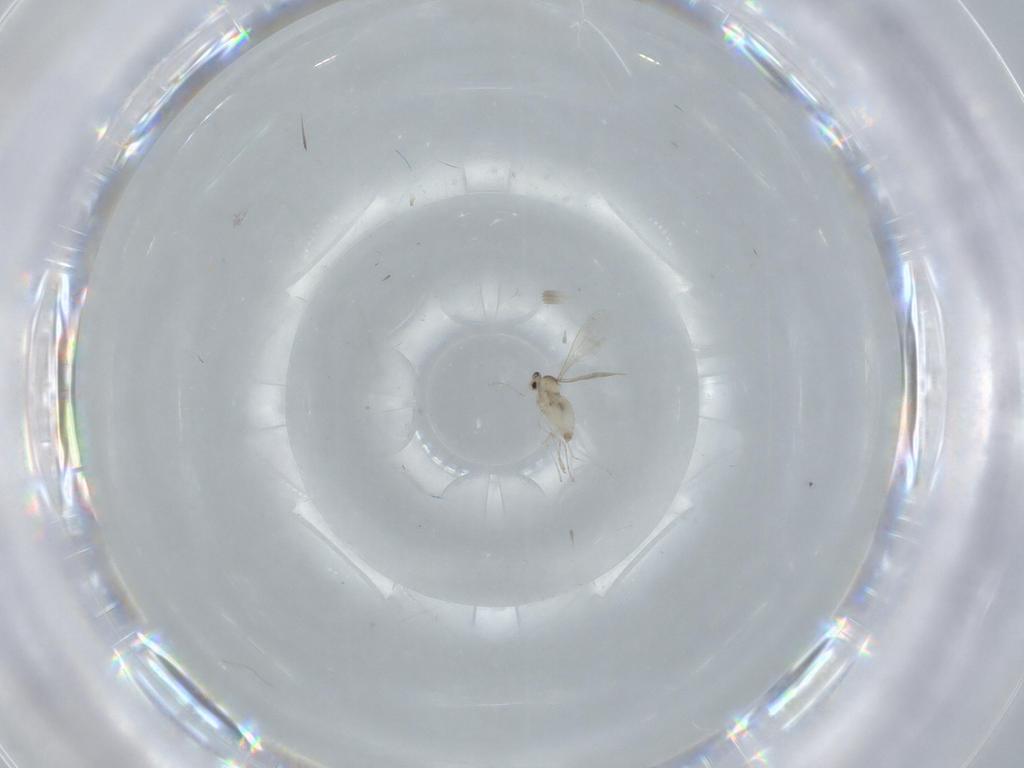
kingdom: Animalia
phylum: Arthropoda
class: Insecta
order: Diptera
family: Cecidomyiidae
